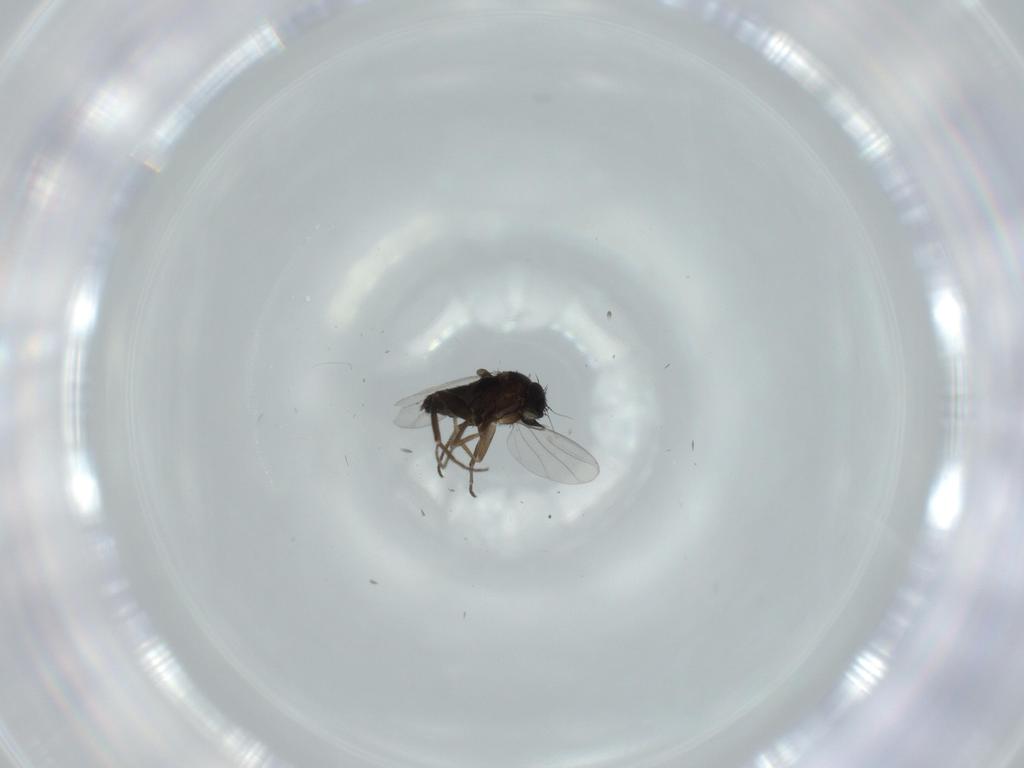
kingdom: Animalia
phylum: Arthropoda
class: Insecta
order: Diptera
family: Phoridae
